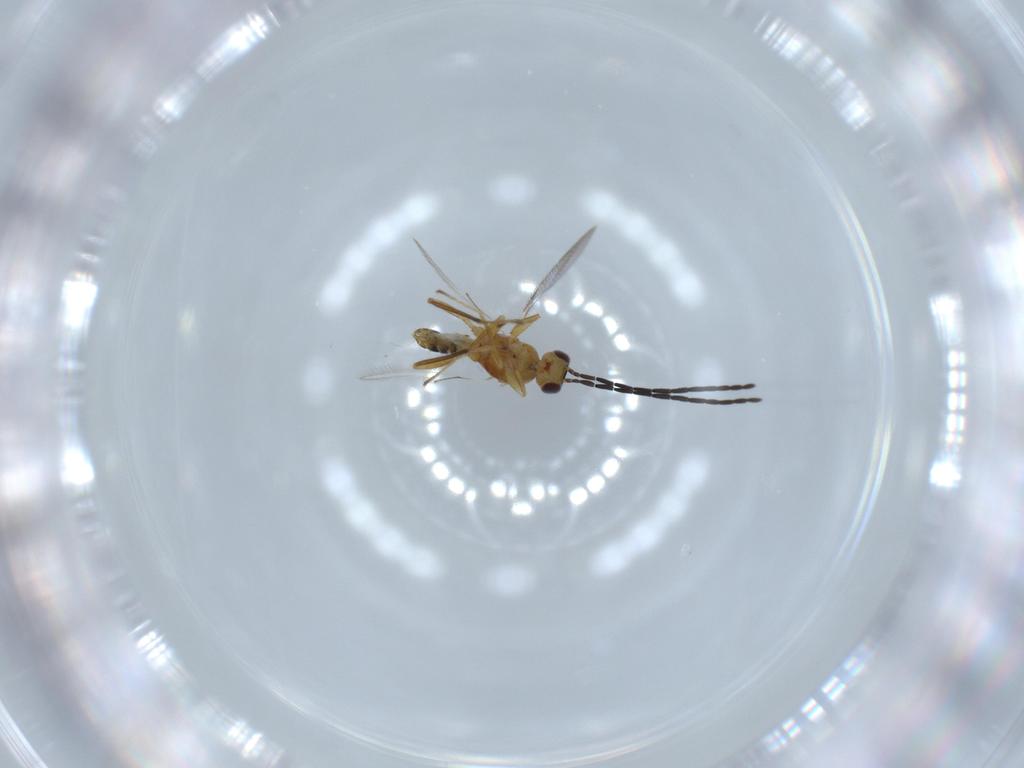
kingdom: Animalia
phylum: Arthropoda
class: Insecta
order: Hymenoptera
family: Mymaridae
